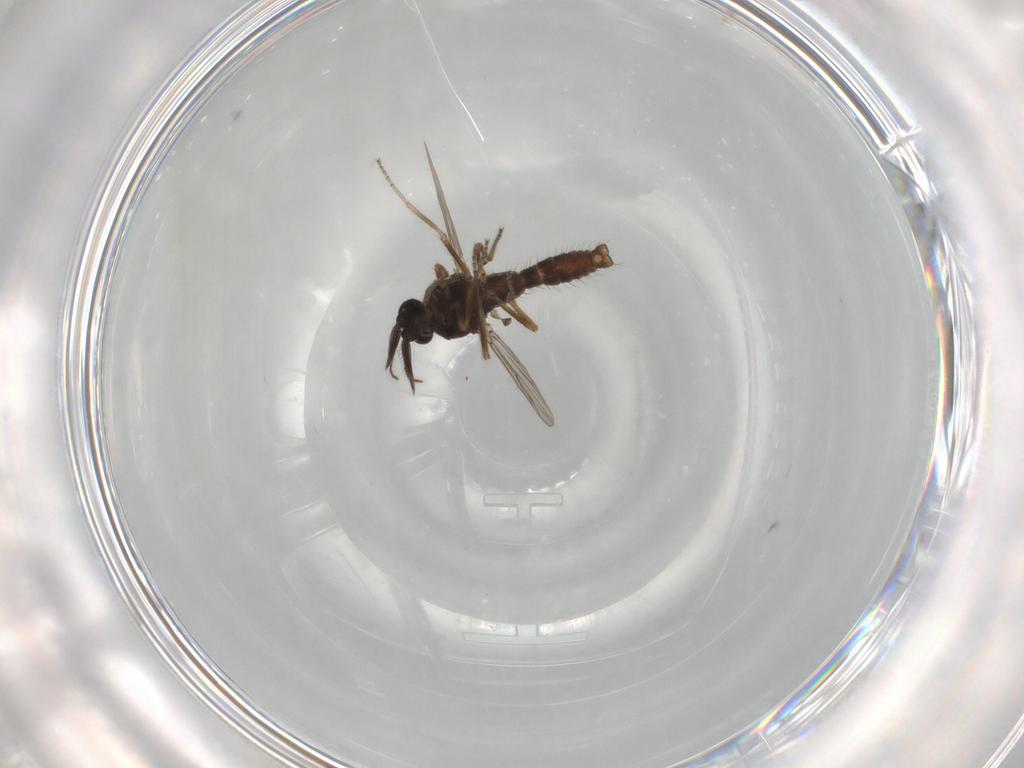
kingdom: Animalia
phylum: Arthropoda
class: Insecta
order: Diptera
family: Ceratopogonidae
